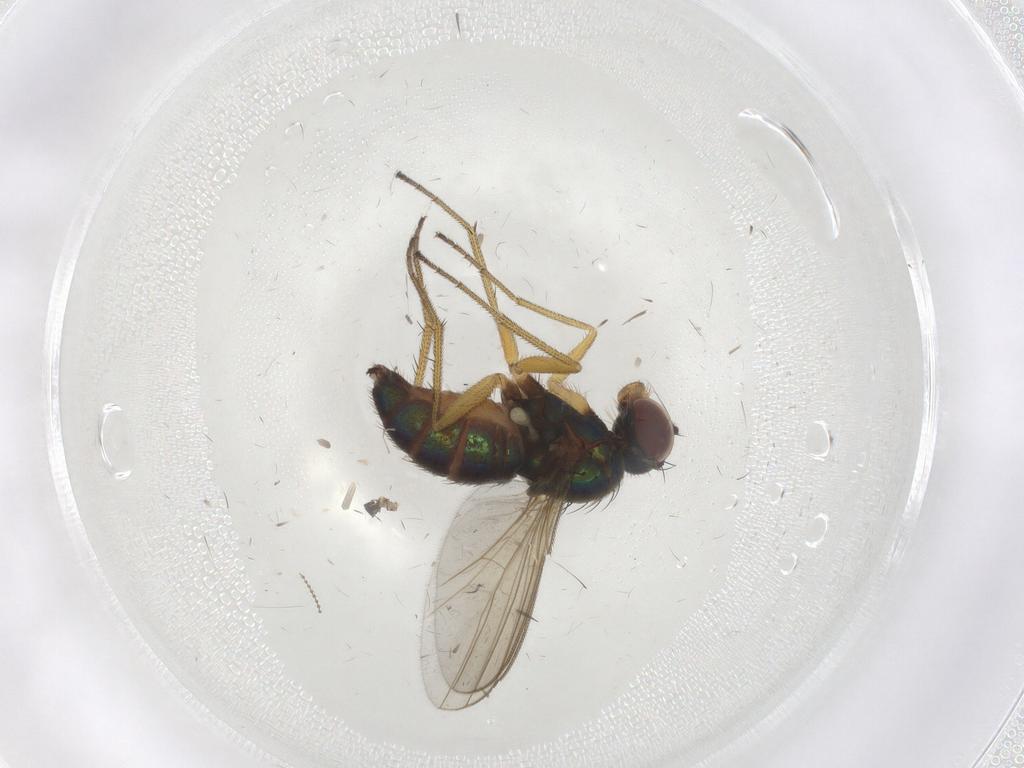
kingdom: Animalia
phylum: Arthropoda
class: Insecta
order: Diptera
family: Dolichopodidae
